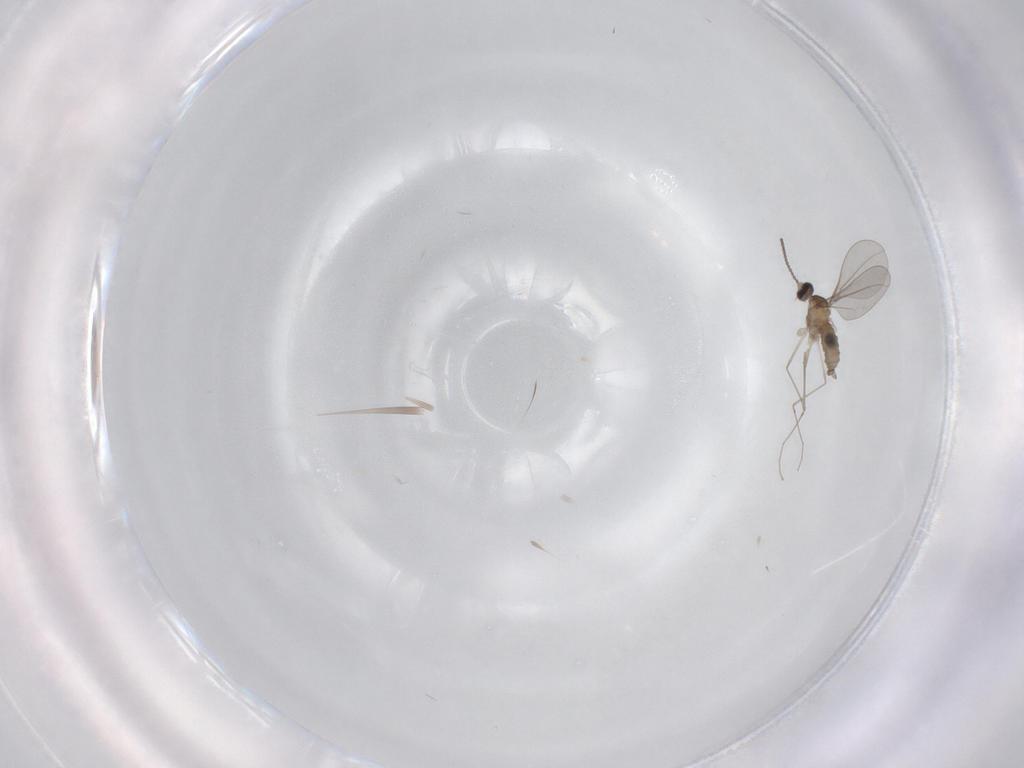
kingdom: Animalia
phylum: Arthropoda
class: Insecta
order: Diptera
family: Cecidomyiidae
